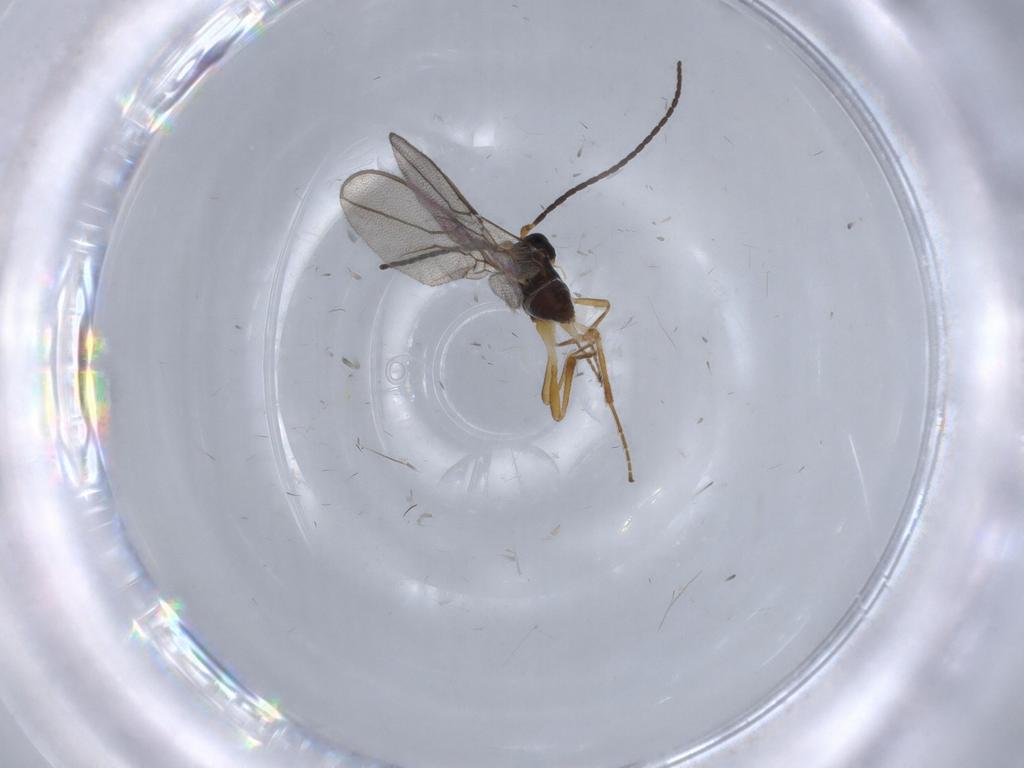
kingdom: Animalia
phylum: Arthropoda
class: Insecta
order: Hymenoptera
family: Braconidae
